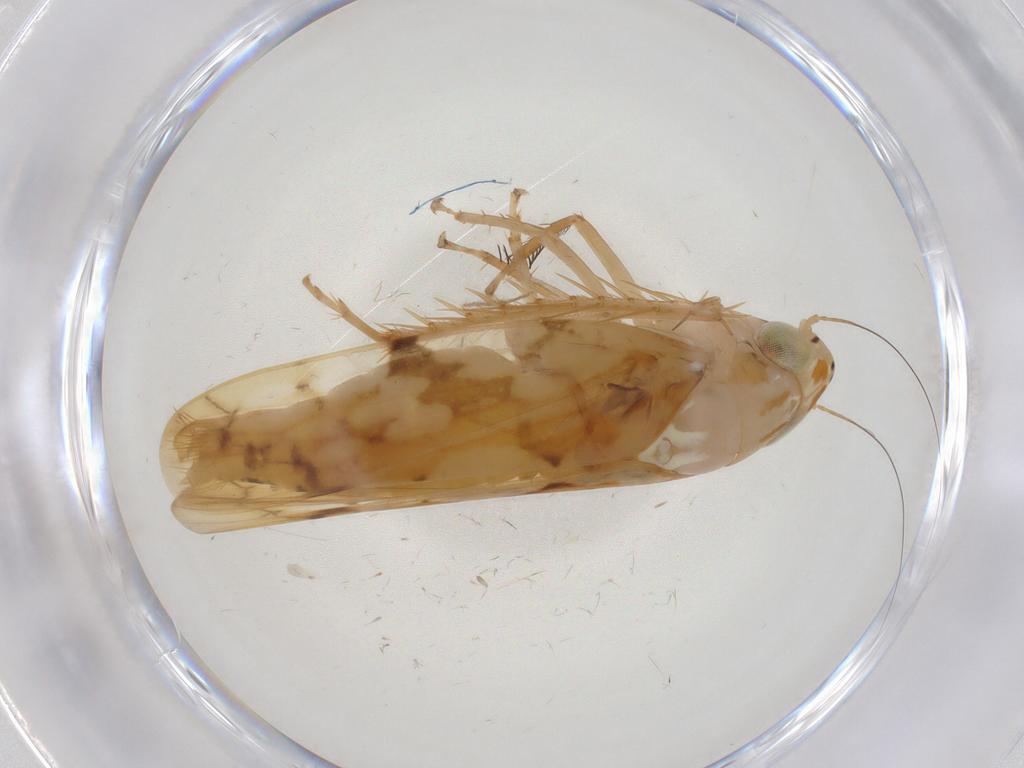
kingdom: Animalia
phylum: Arthropoda
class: Insecta
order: Hemiptera
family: Cicadellidae
